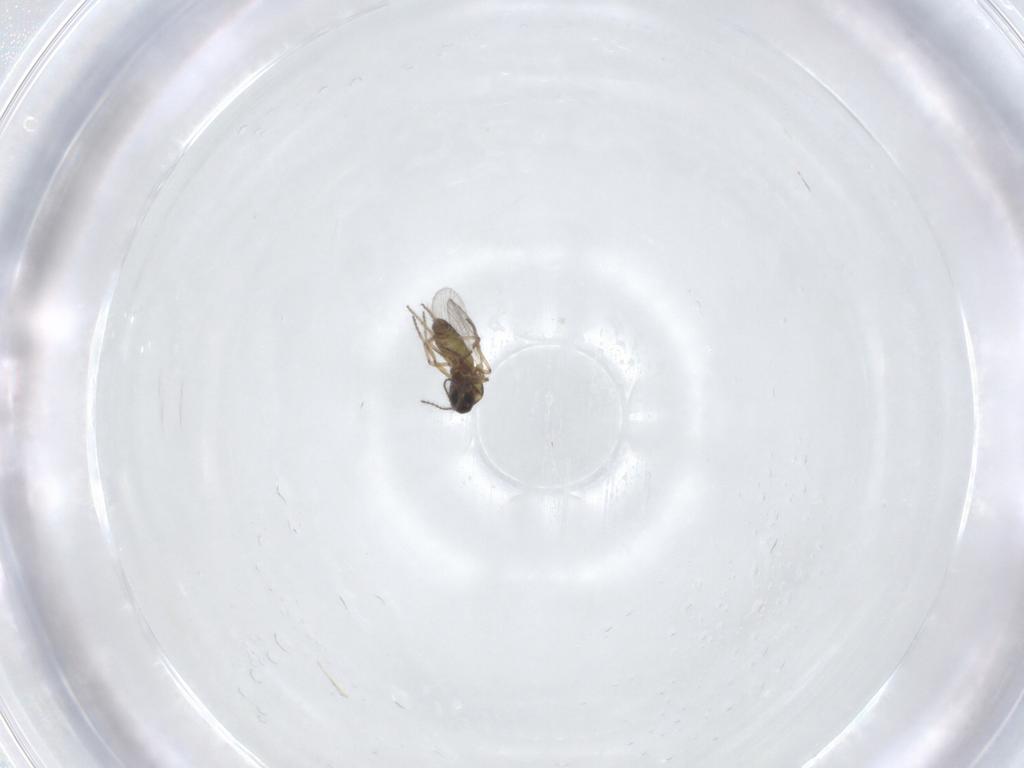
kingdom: Animalia
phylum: Arthropoda
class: Insecta
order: Diptera
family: Ceratopogonidae
